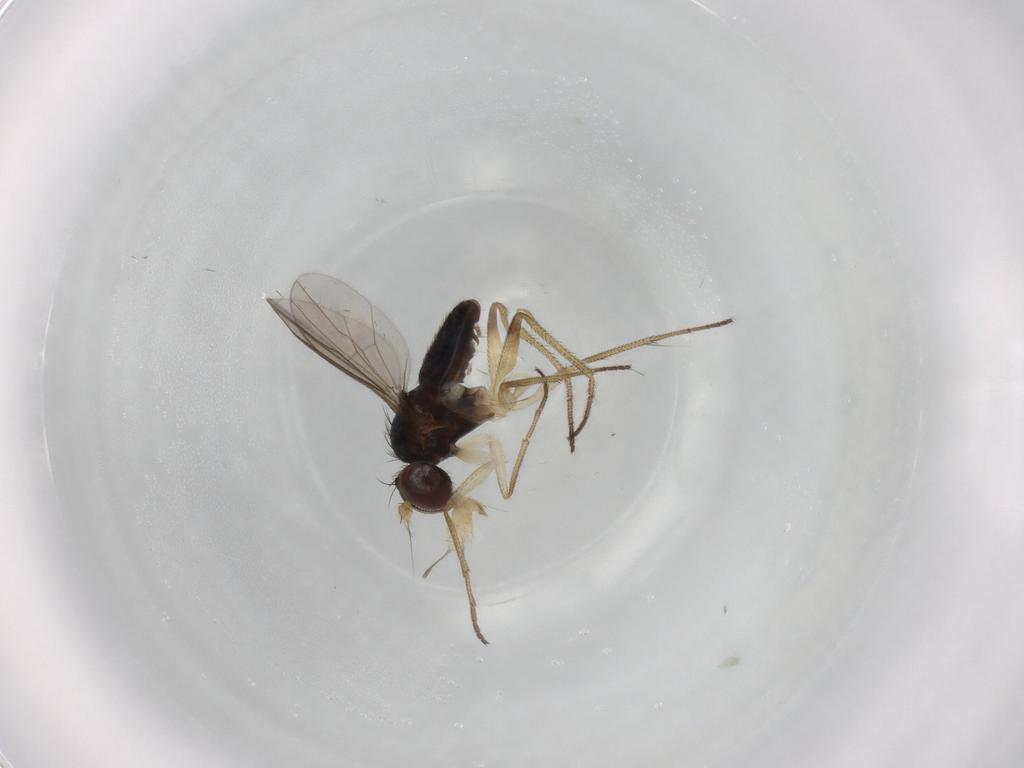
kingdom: Animalia
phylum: Arthropoda
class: Insecta
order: Diptera
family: Dolichopodidae
